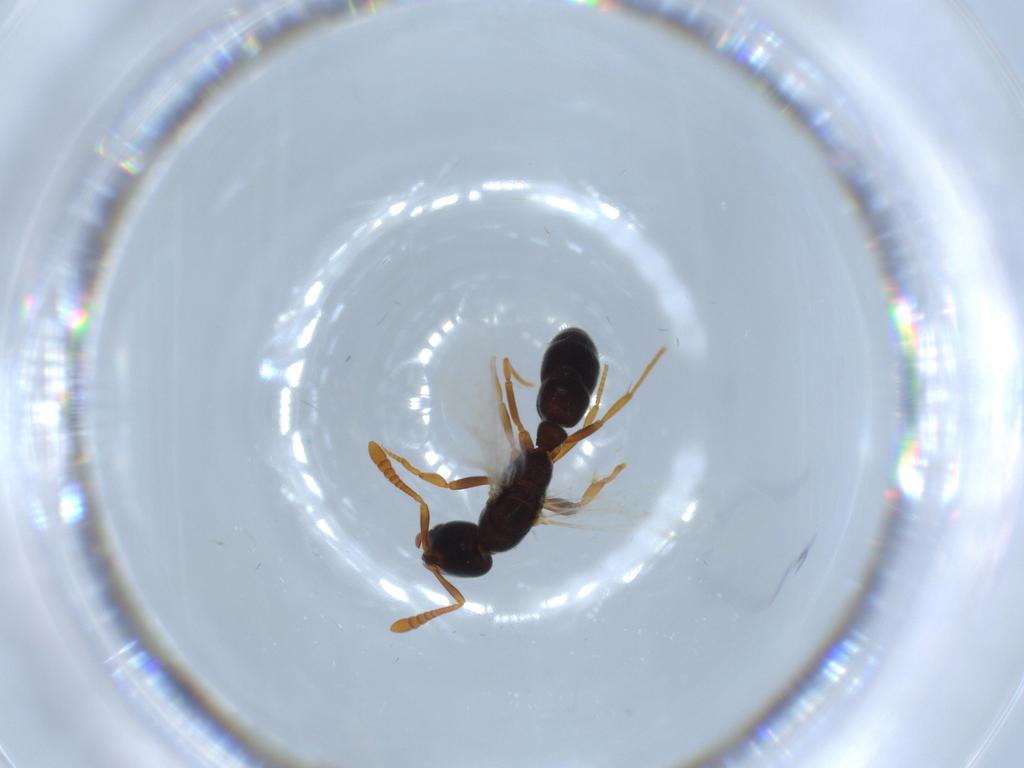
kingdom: Animalia
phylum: Arthropoda
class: Insecta
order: Hymenoptera
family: Formicidae
